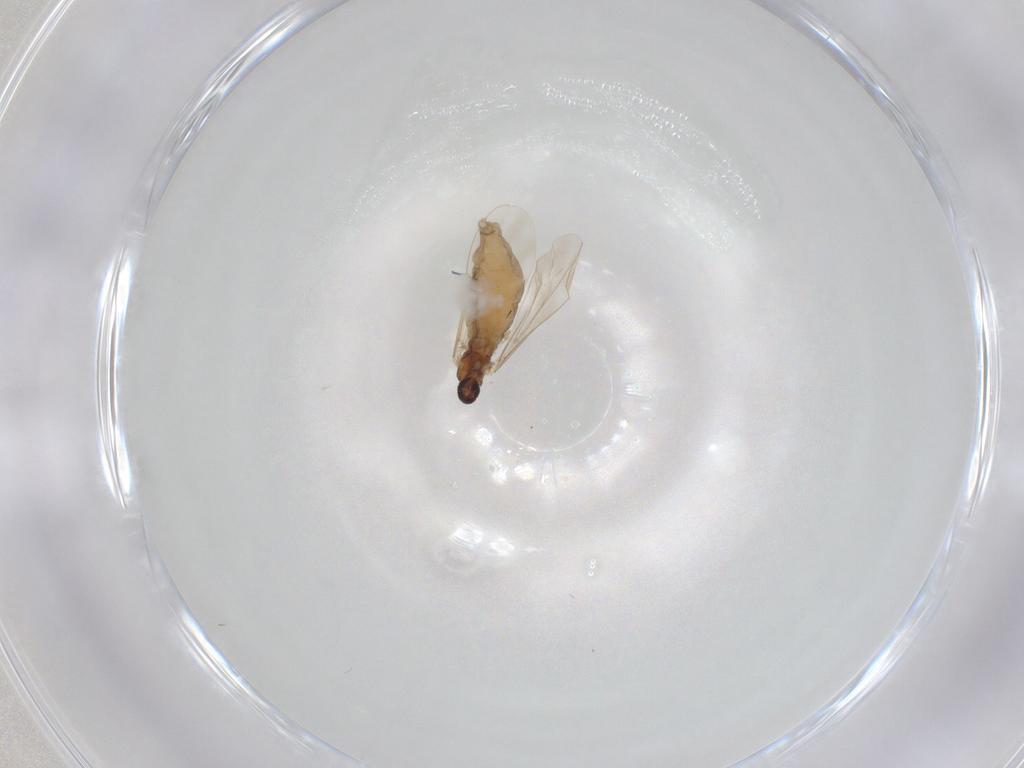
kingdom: Animalia
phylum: Arthropoda
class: Insecta
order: Diptera
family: Cecidomyiidae
